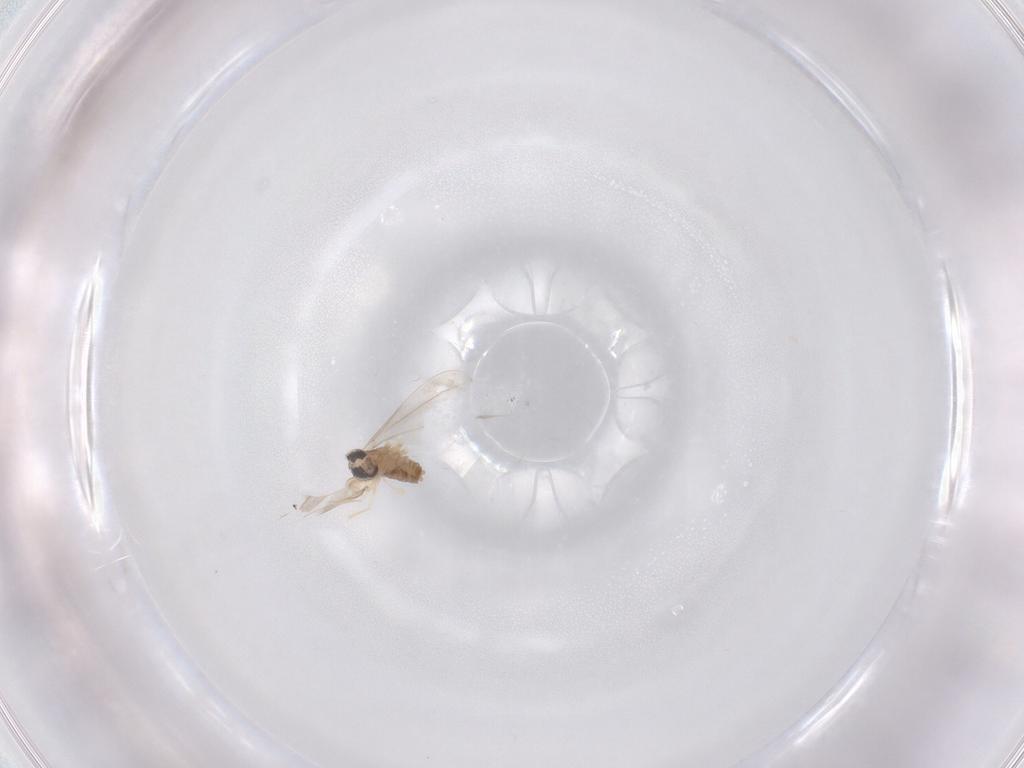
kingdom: Animalia
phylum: Arthropoda
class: Insecta
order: Diptera
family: Cecidomyiidae
